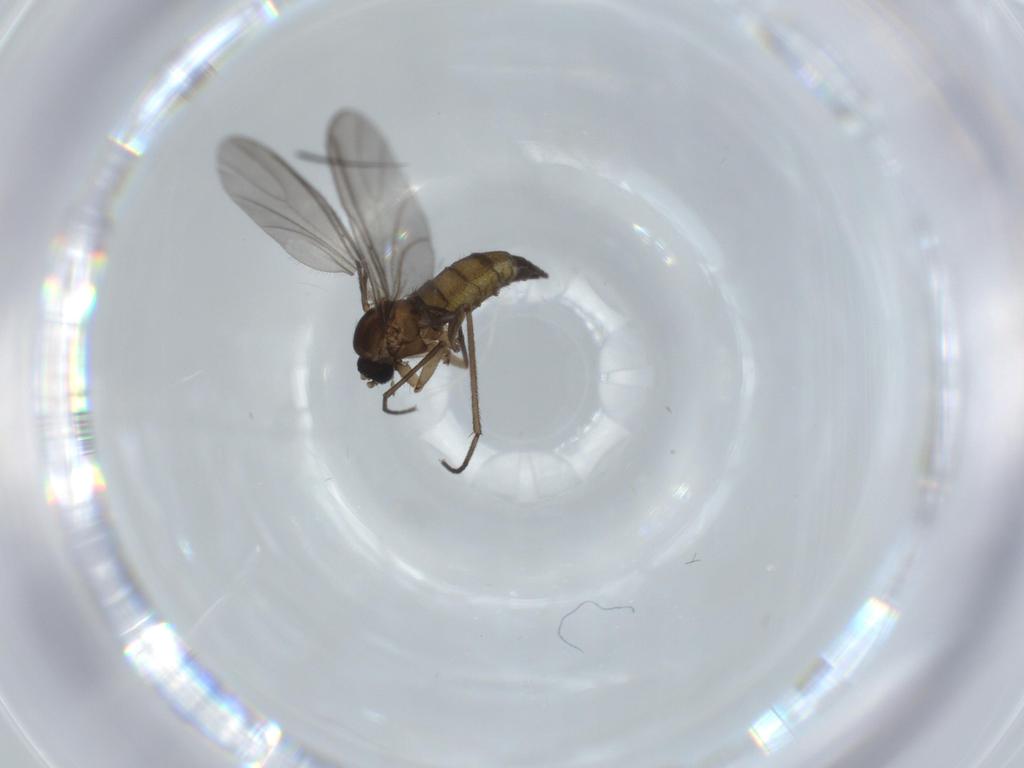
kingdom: Animalia
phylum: Arthropoda
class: Insecta
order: Diptera
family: Sciaridae
